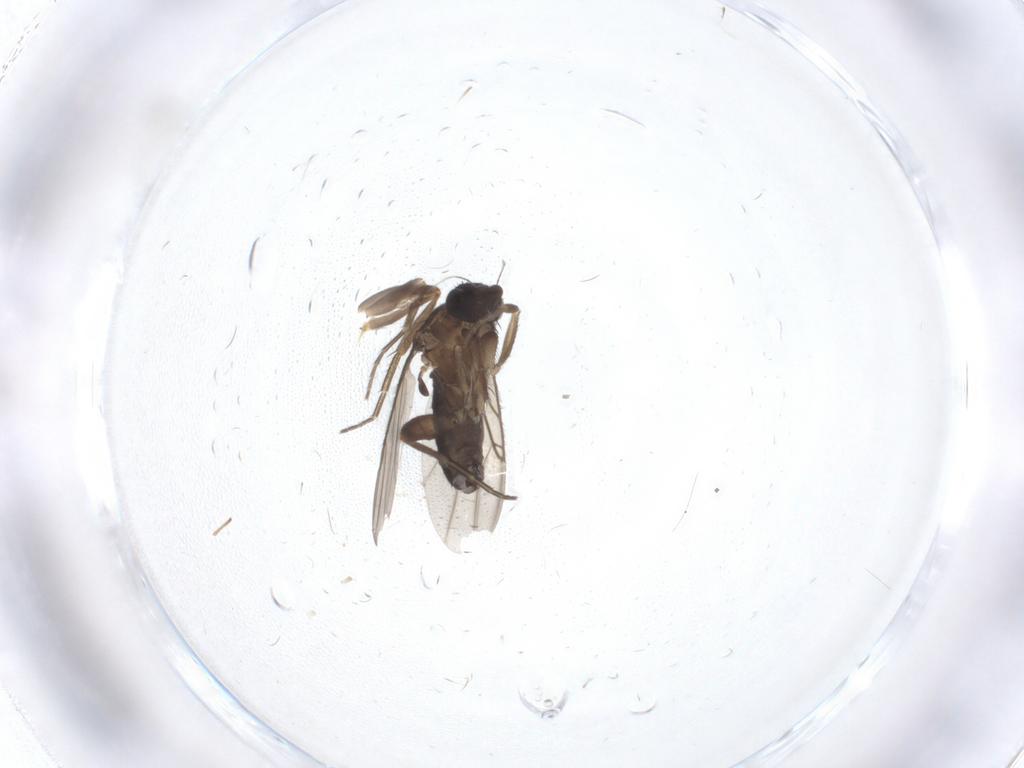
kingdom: Animalia
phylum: Arthropoda
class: Insecta
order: Diptera
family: Phoridae
